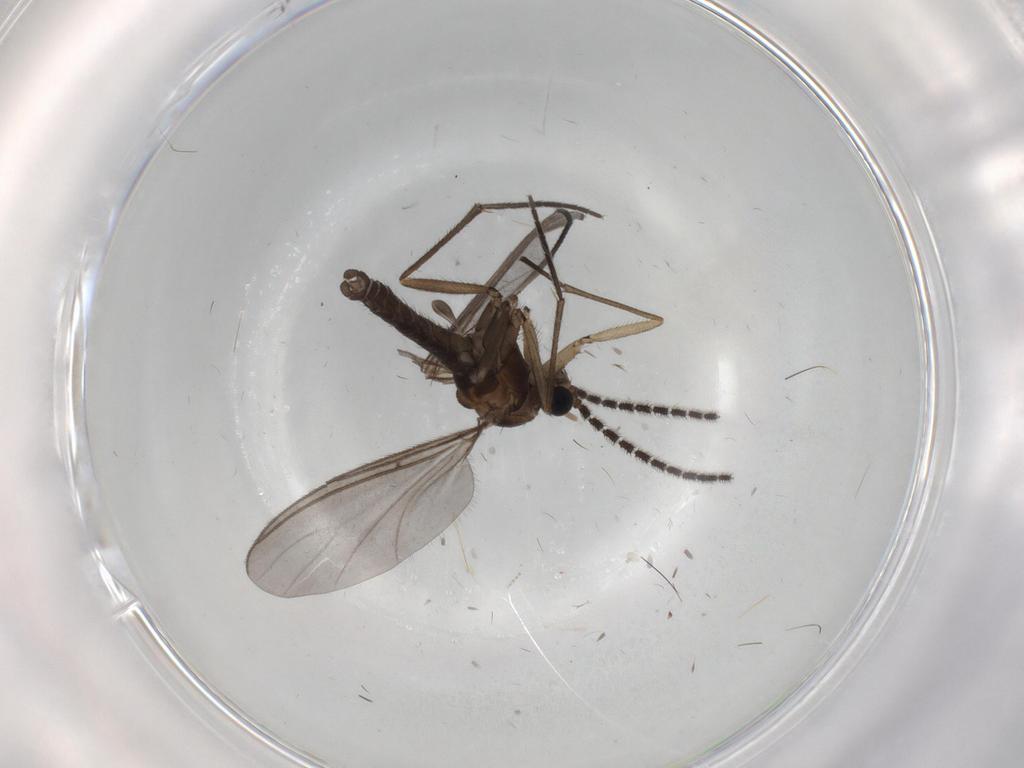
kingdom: Animalia
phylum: Arthropoda
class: Insecta
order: Diptera
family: Sciaridae
